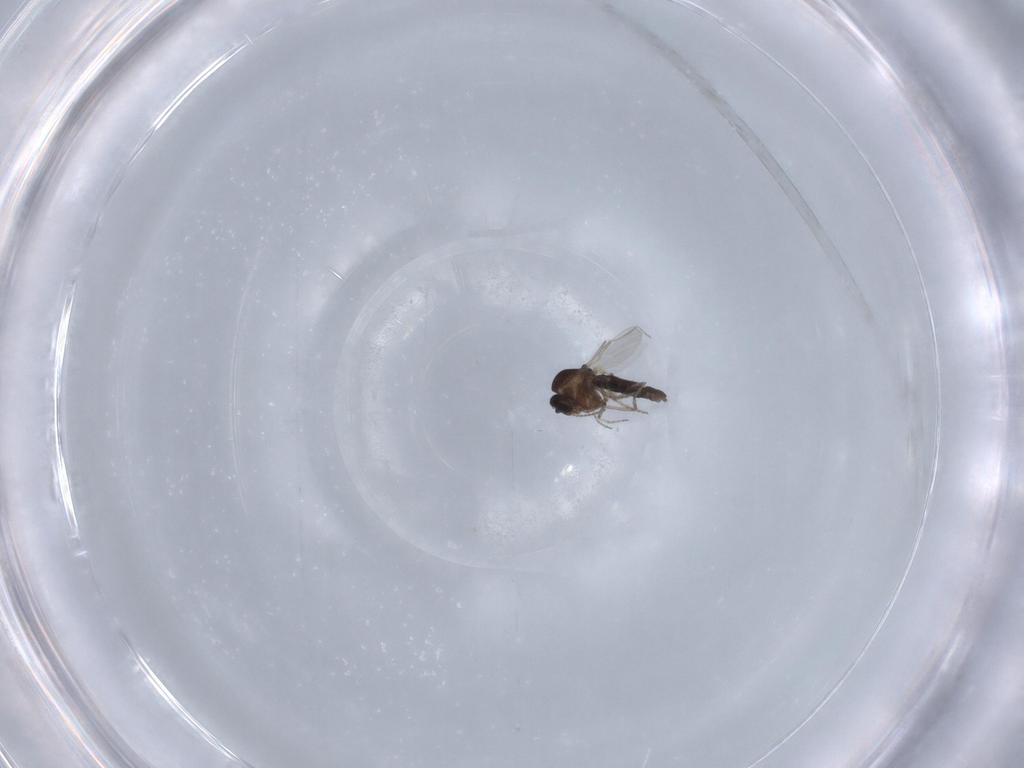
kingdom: Animalia
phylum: Arthropoda
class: Insecta
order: Diptera
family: Ceratopogonidae
